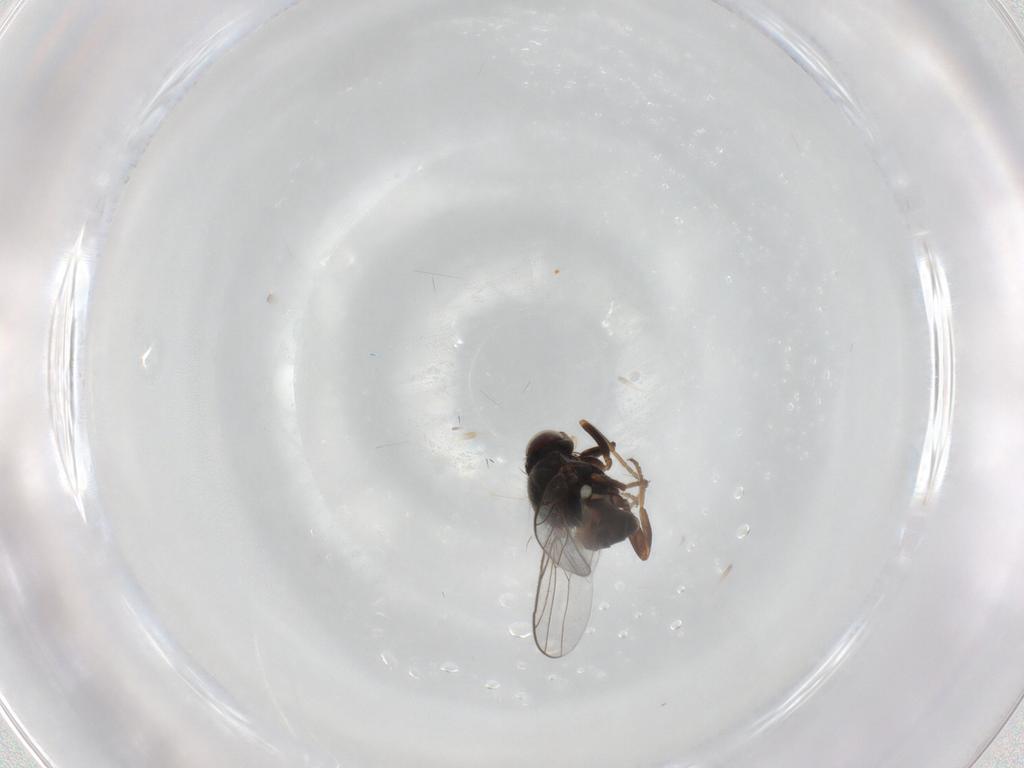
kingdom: Animalia
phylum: Arthropoda
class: Insecta
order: Diptera
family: Chloropidae
